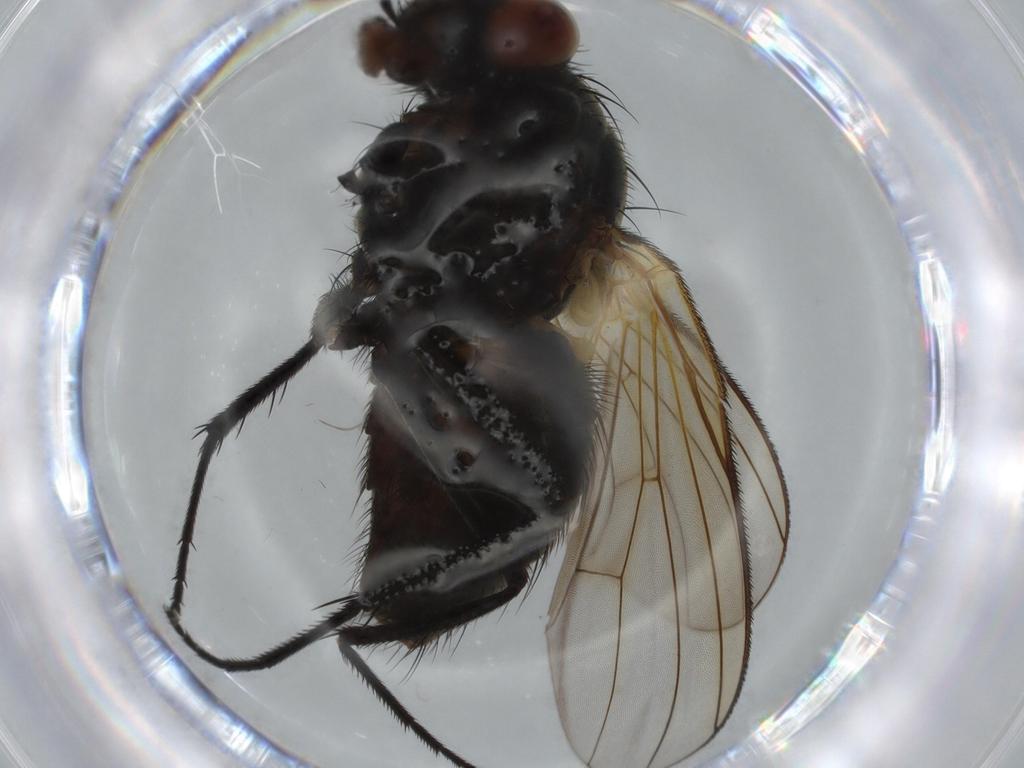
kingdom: Animalia
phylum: Arthropoda
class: Insecta
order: Diptera
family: Muscidae
